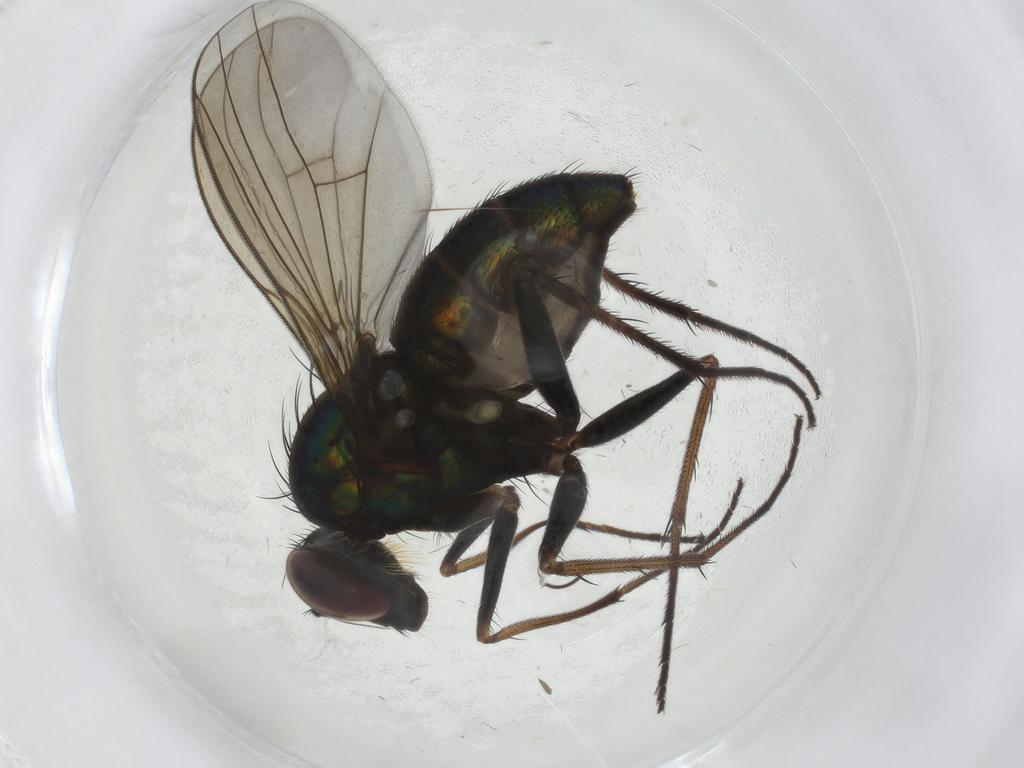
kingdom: Animalia
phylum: Arthropoda
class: Insecta
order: Diptera
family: Cecidomyiidae
